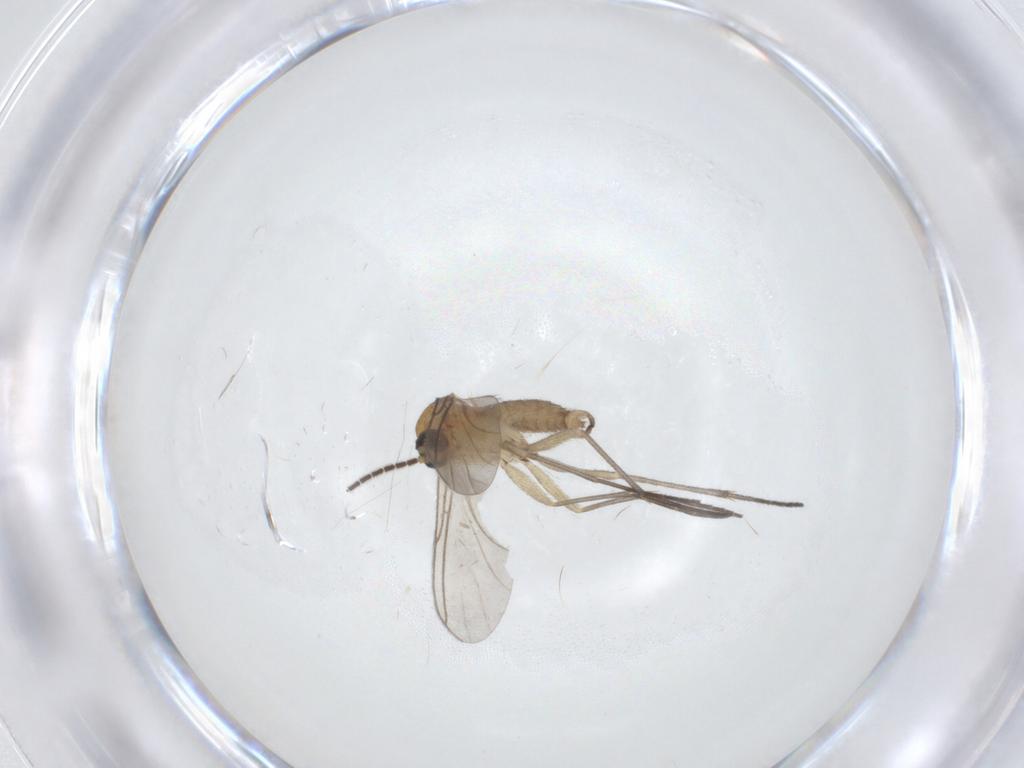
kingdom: Animalia
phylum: Arthropoda
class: Insecta
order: Diptera
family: Sciaridae
